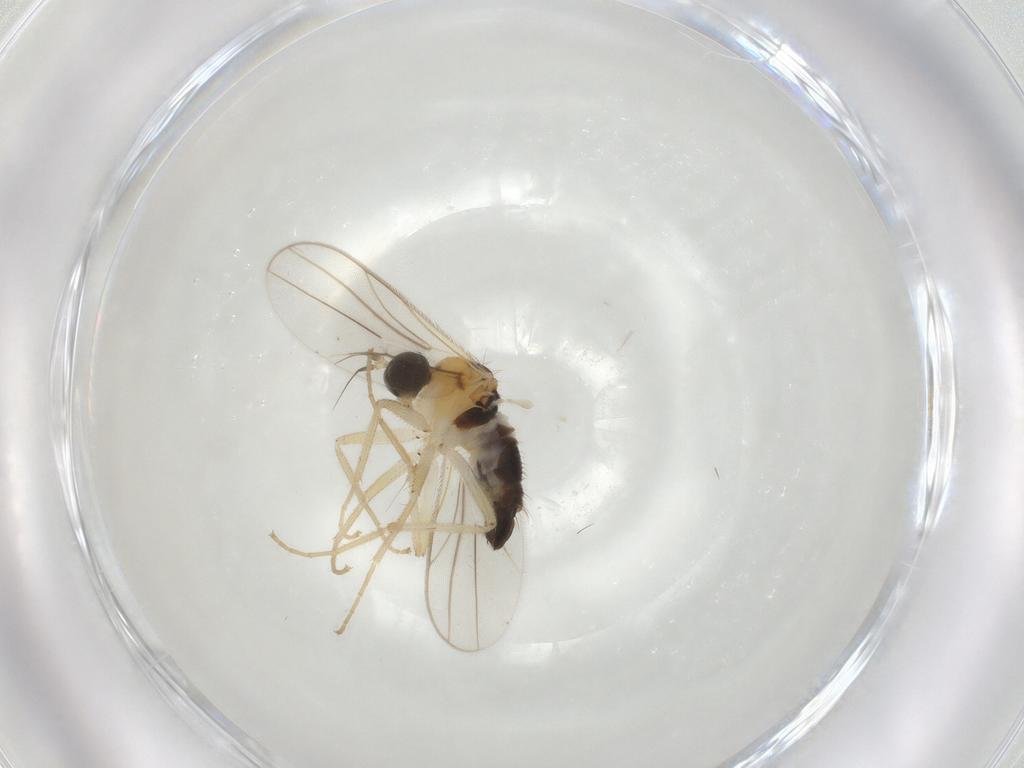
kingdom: Animalia
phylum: Arthropoda
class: Insecta
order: Diptera
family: Hybotidae
